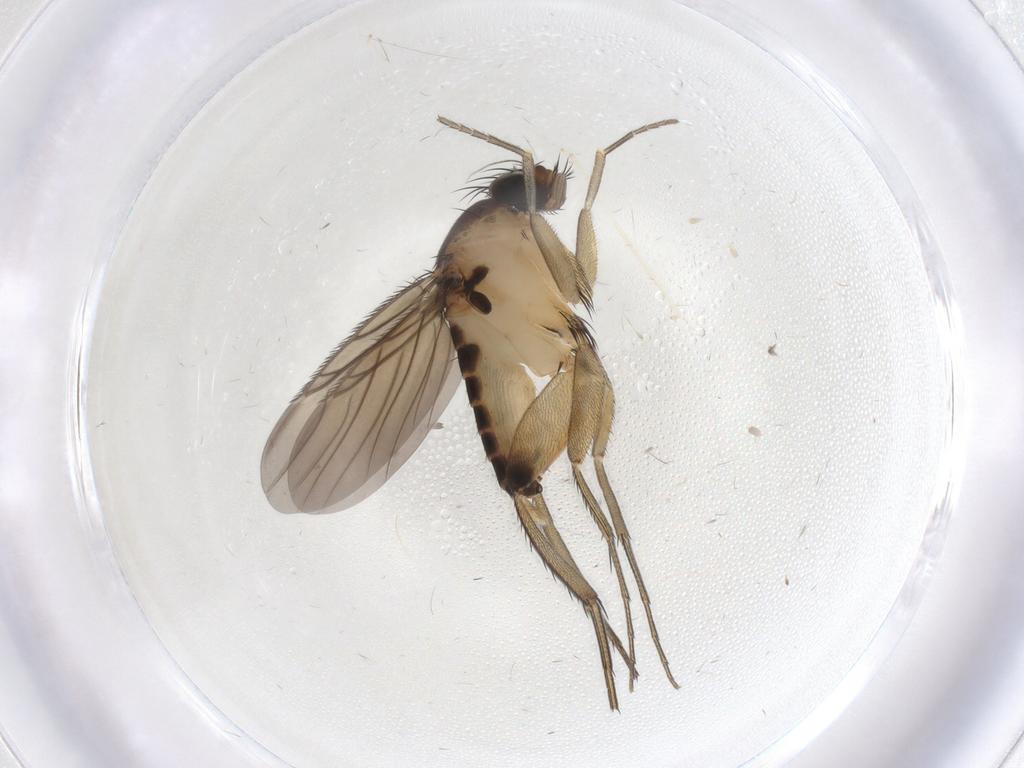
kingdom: Animalia
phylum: Arthropoda
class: Insecta
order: Diptera
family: Phoridae
